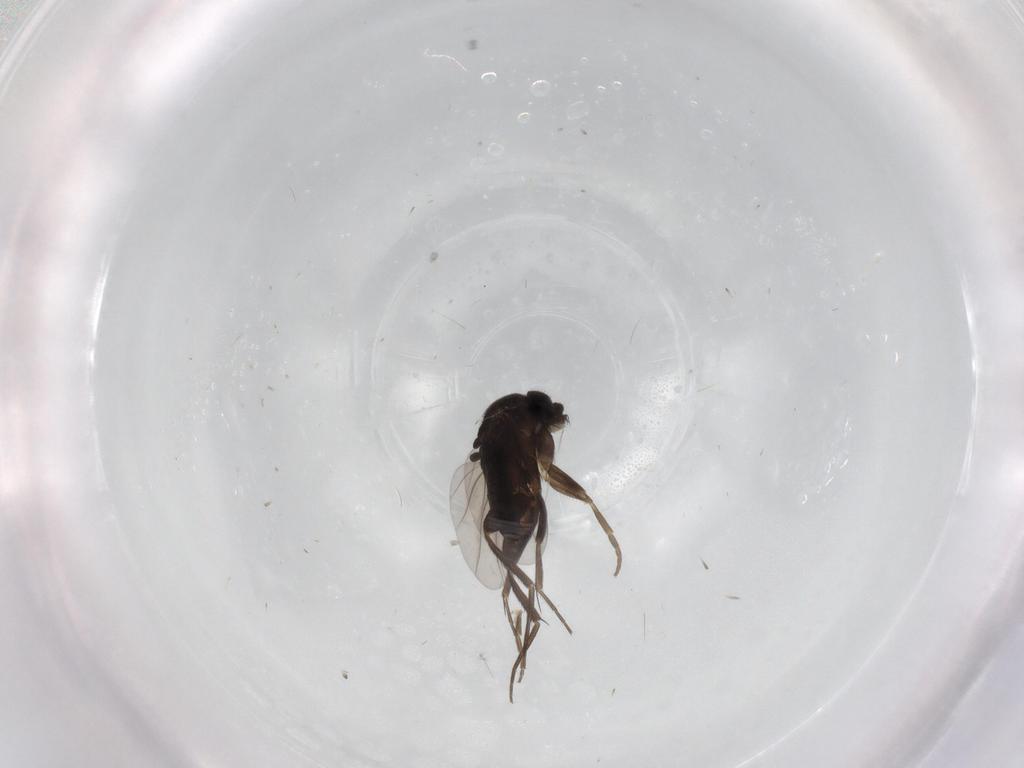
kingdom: Animalia
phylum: Arthropoda
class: Insecta
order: Diptera
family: Phoridae
